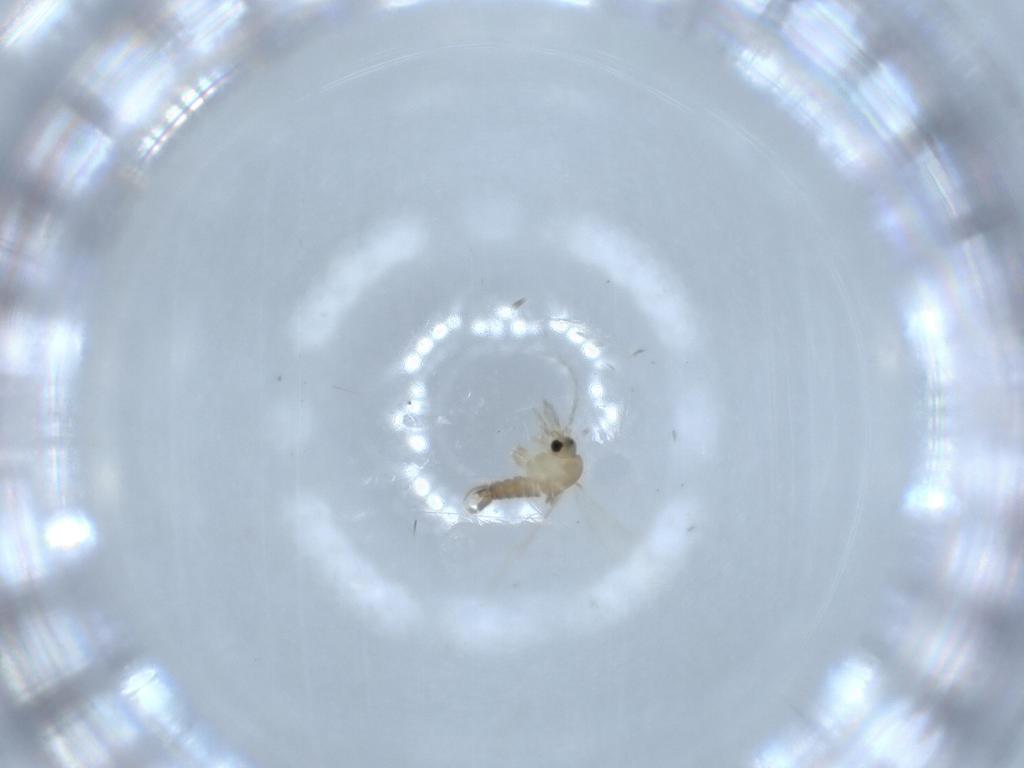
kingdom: Animalia
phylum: Arthropoda
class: Insecta
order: Diptera
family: Psychodidae
